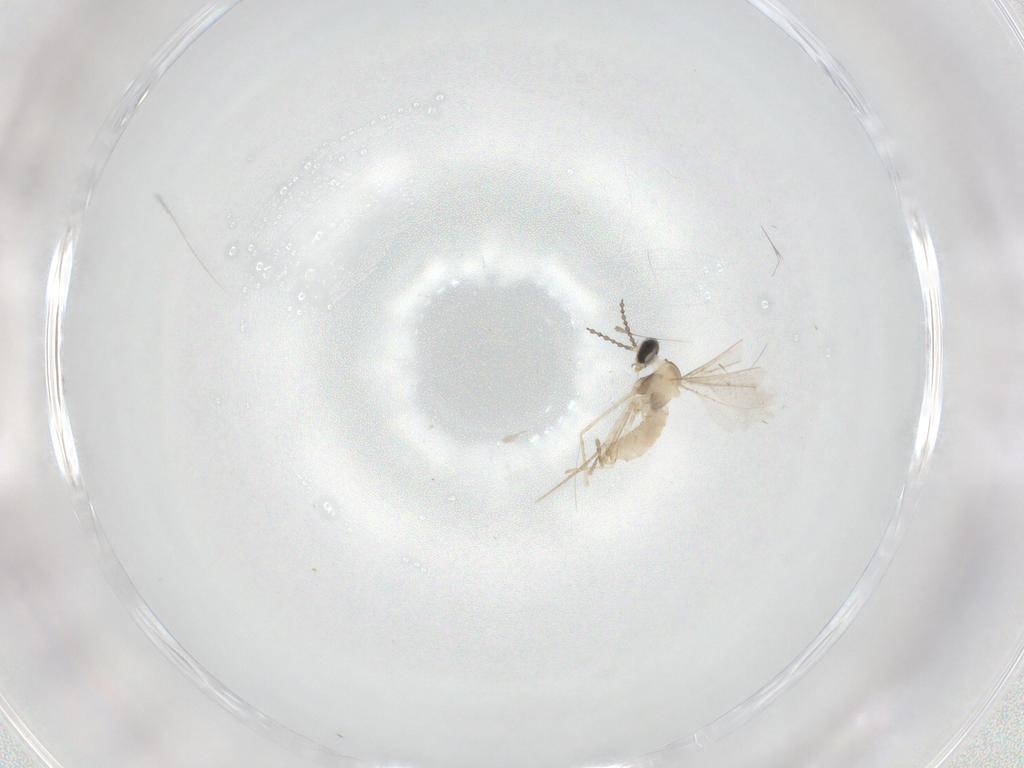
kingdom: Animalia
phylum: Arthropoda
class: Insecta
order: Diptera
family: Cecidomyiidae
